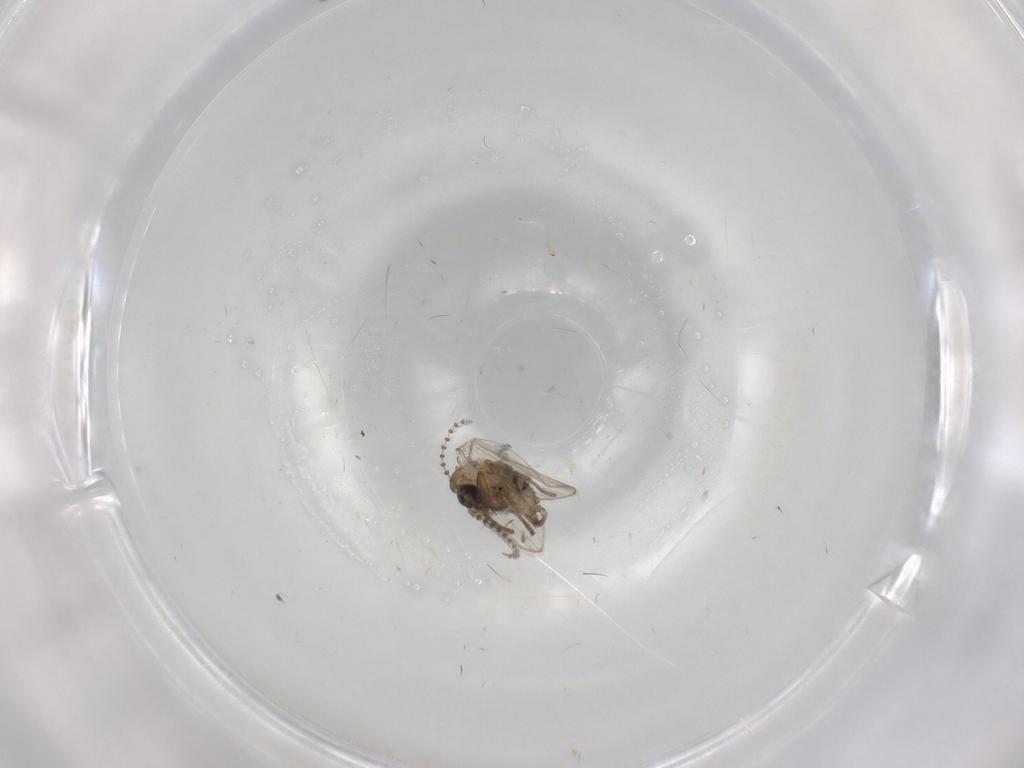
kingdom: Animalia
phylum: Arthropoda
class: Insecta
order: Diptera
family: Psychodidae
